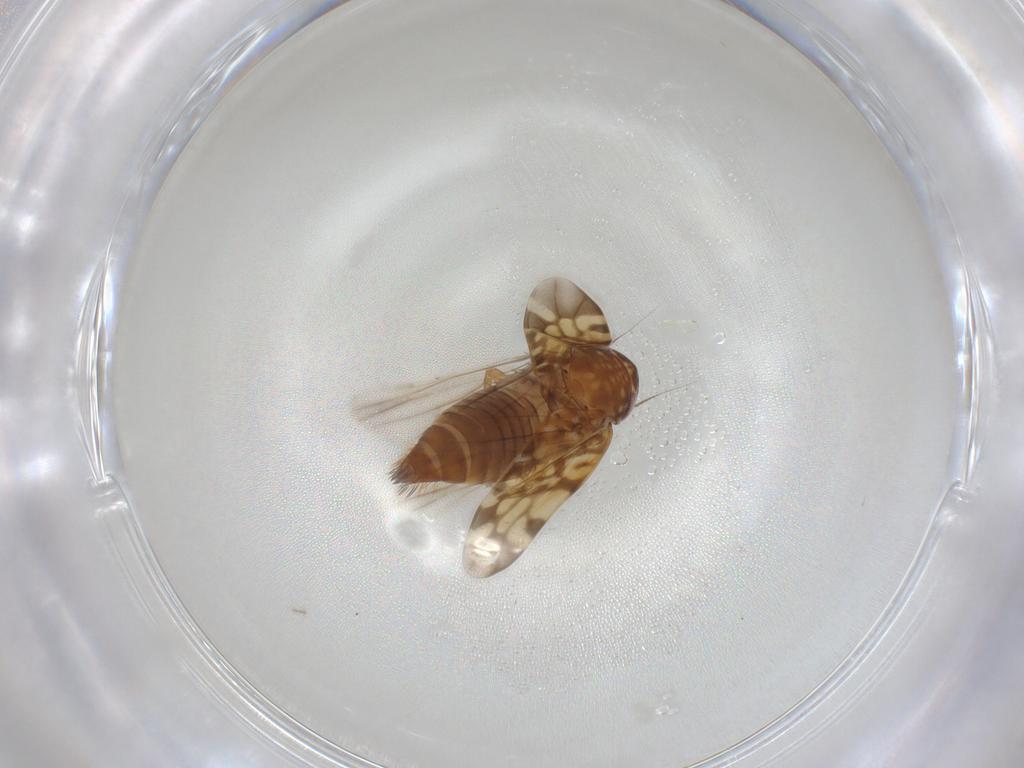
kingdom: Animalia
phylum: Arthropoda
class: Insecta
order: Hemiptera
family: Cicadellidae
